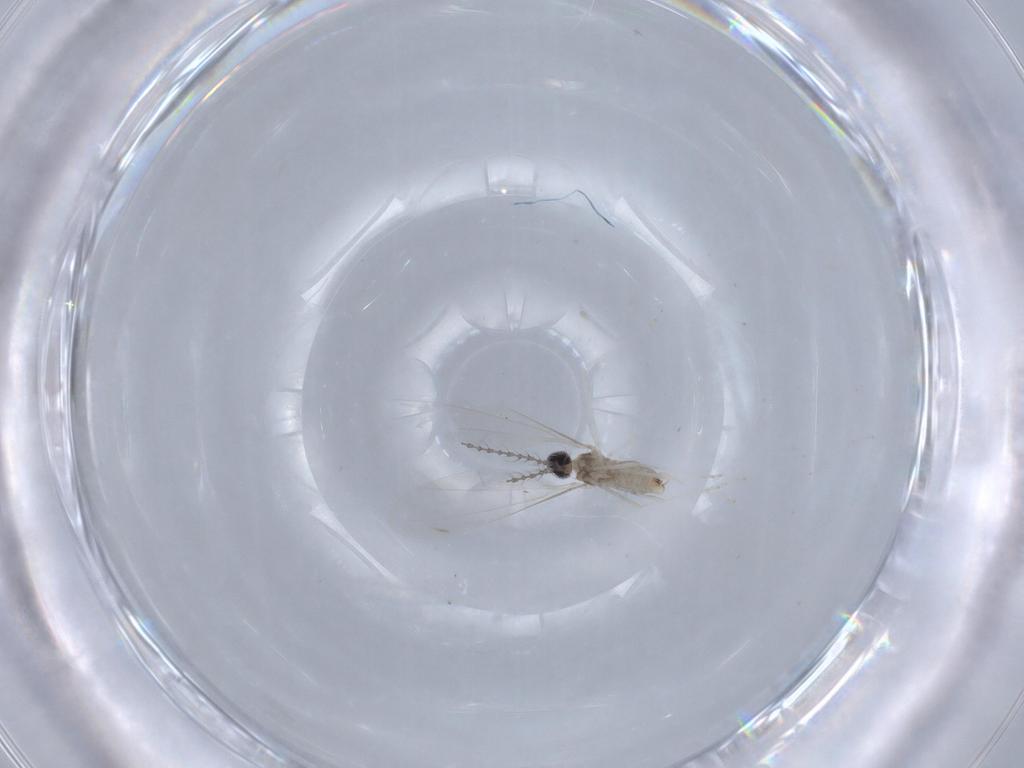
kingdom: Animalia
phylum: Arthropoda
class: Insecta
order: Diptera
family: Cecidomyiidae
